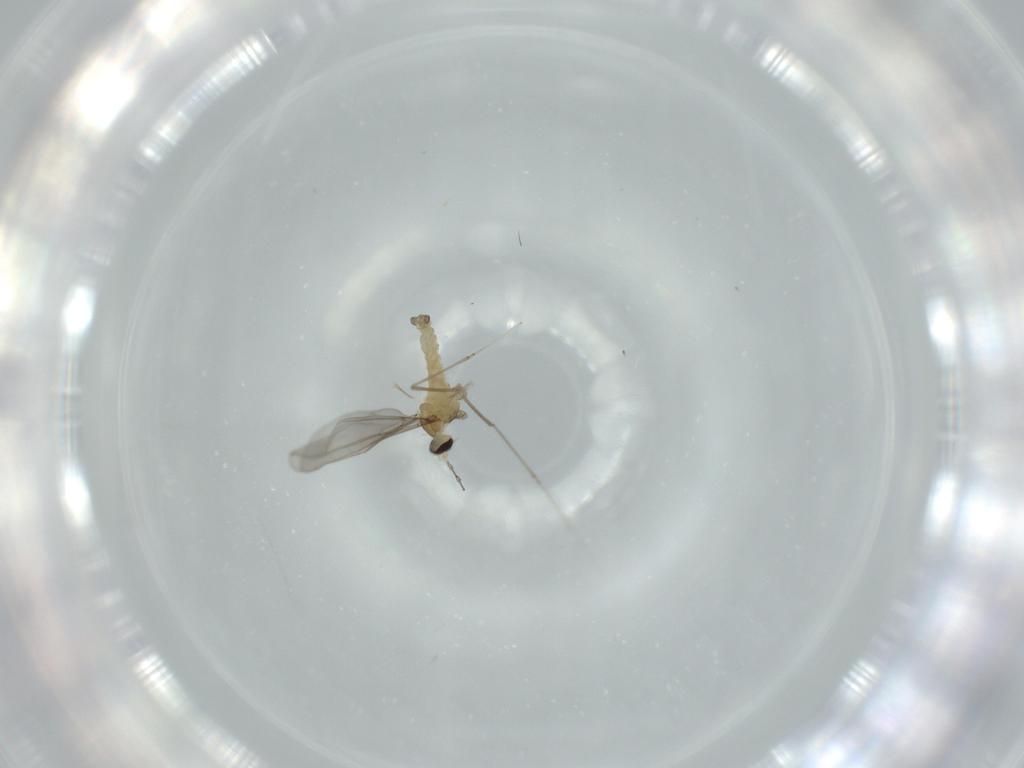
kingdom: Animalia
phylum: Arthropoda
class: Insecta
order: Diptera
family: Cecidomyiidae
